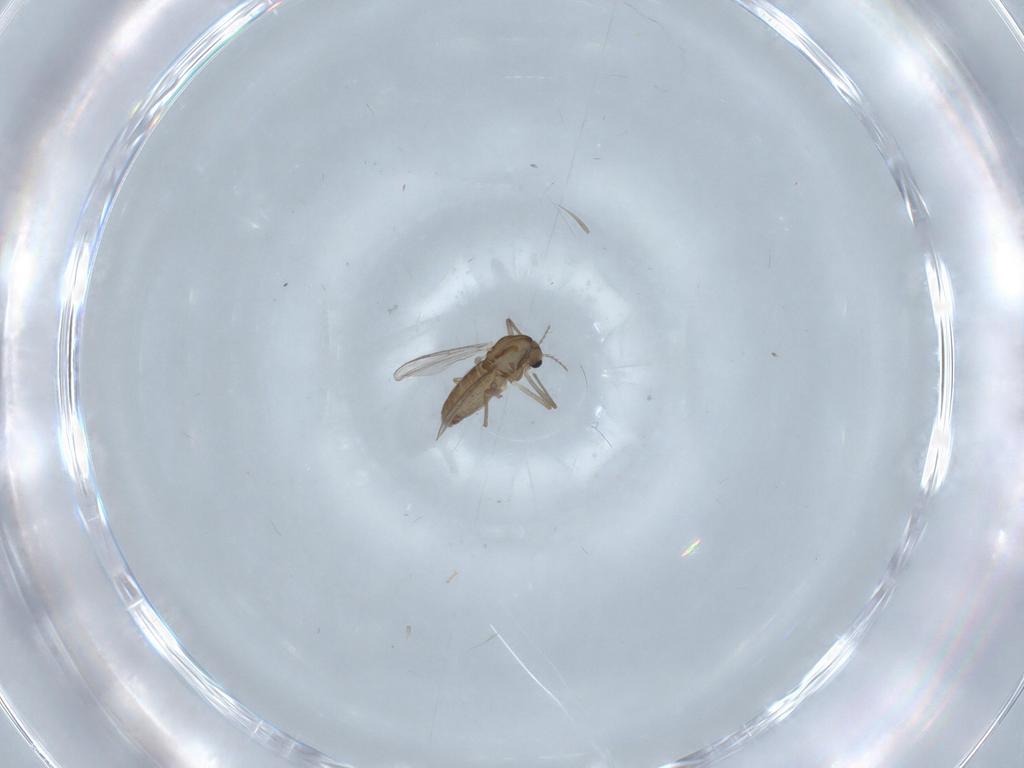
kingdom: Animalia
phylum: Arthropoda
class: Insecta
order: Diptera
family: Chironomidae
